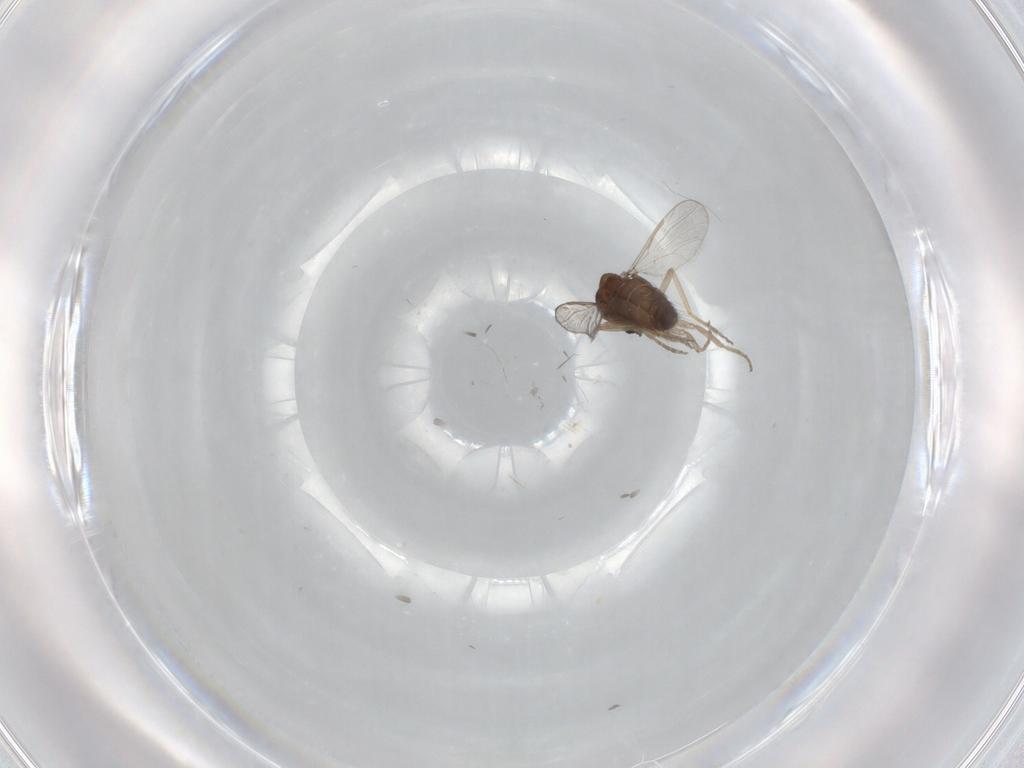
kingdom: Animalia
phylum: Arthropoda
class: Insecta
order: Diptera
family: Ceratopogonidae
